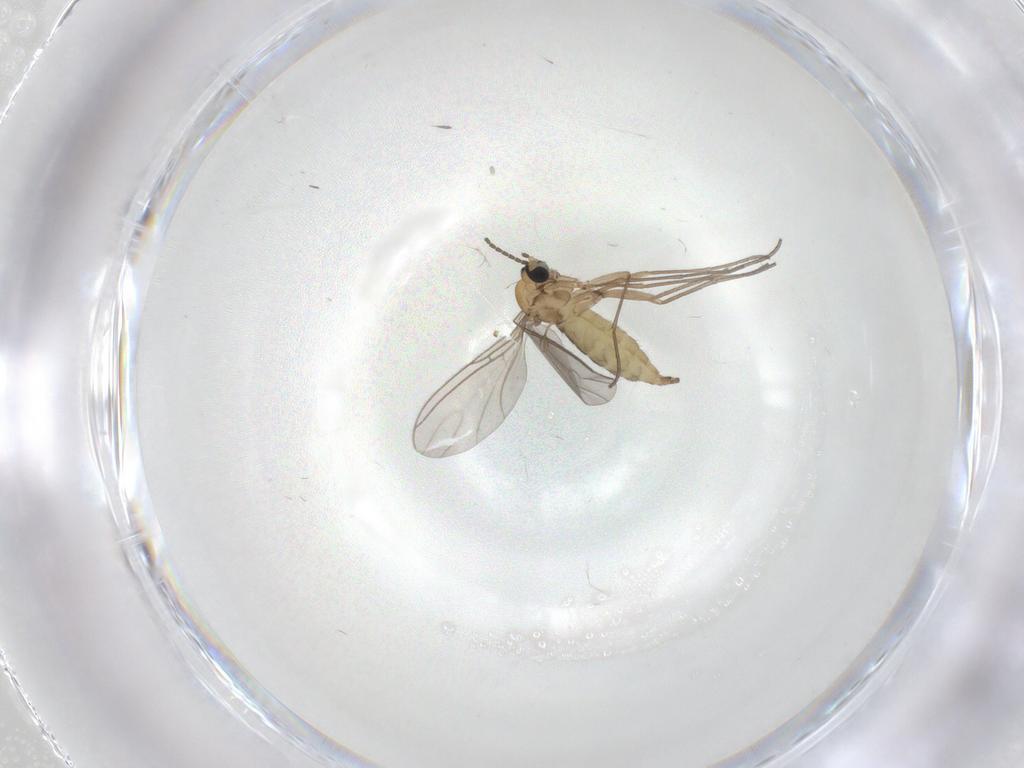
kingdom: Animalia
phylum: Arthropoda
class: Insecta
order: Diptera
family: Sciaridae
